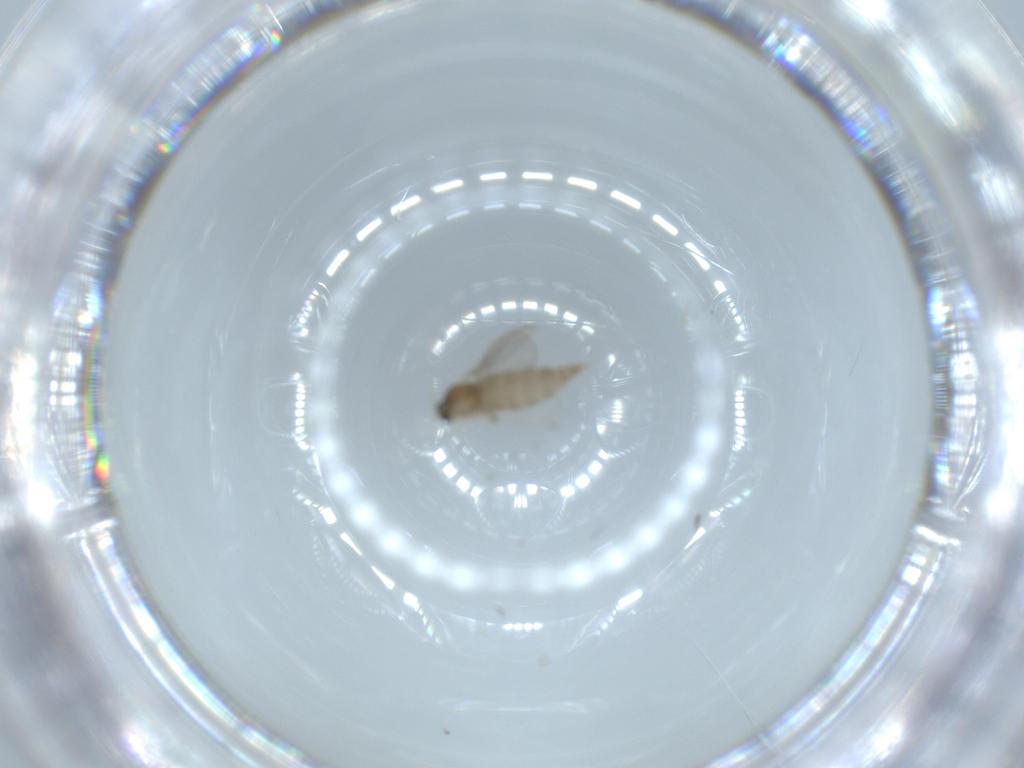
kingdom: Animalia
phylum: Arthropoda
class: Insecta
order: Diptera
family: Cecidomyiidae
